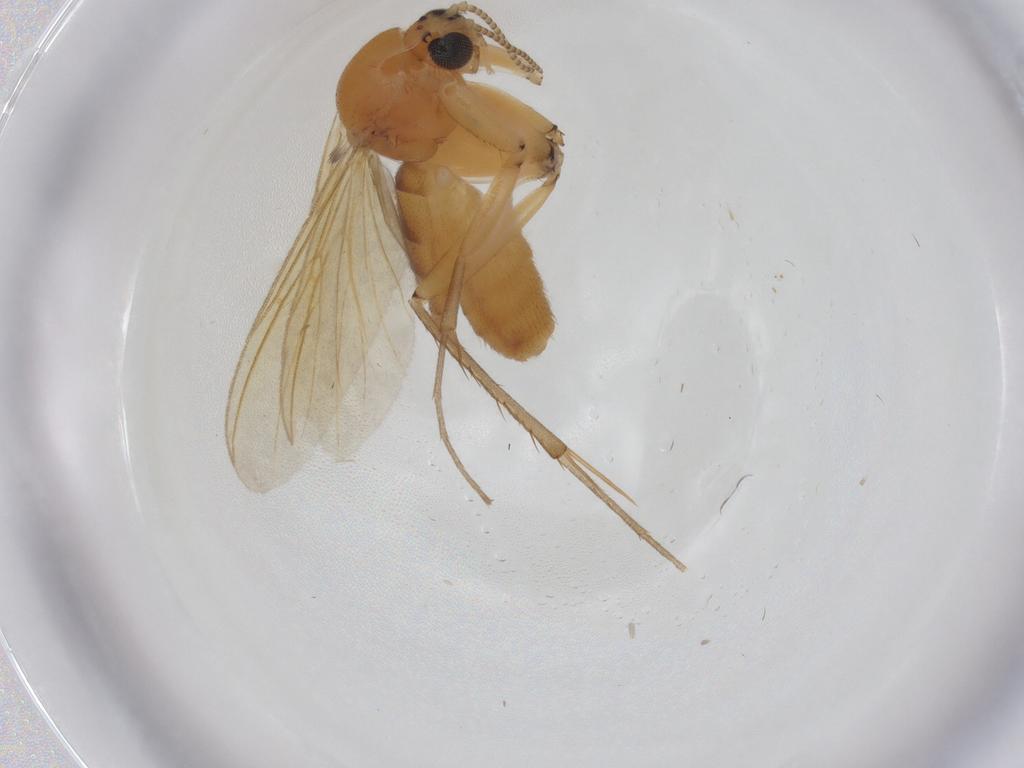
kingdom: Animalia
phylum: Arthropoda
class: Insecta
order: Diptera
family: Mycetophilidae
